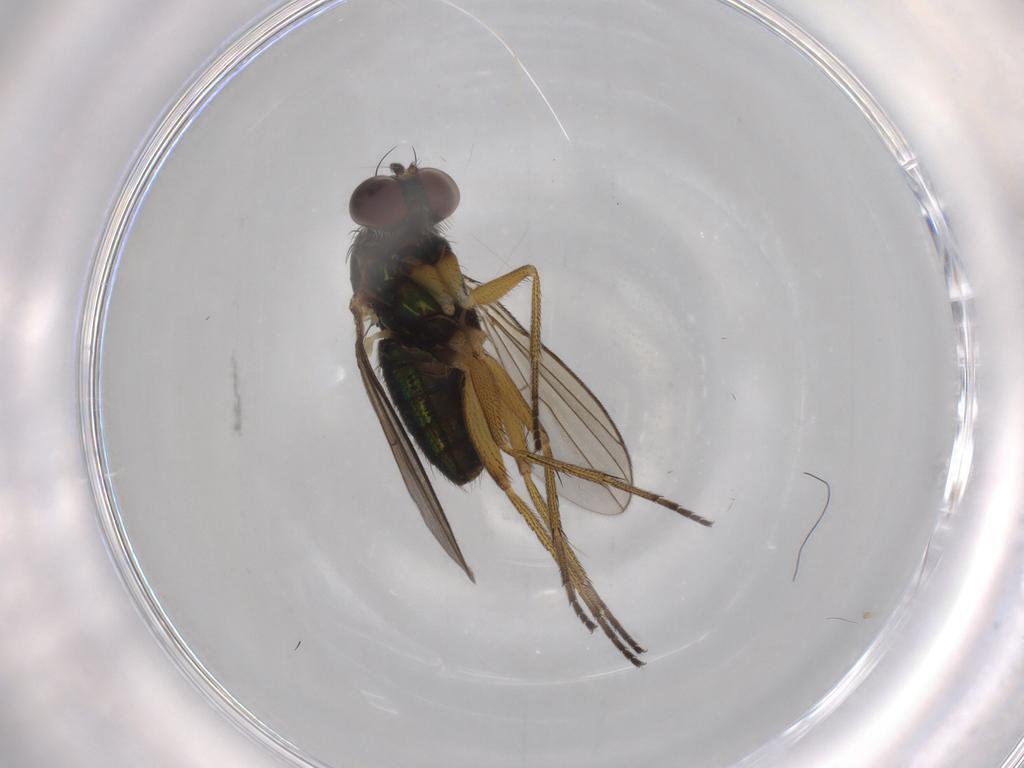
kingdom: Animalia
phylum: Arthropoda
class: Insecta
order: Diptera
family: Dolichopodidae
